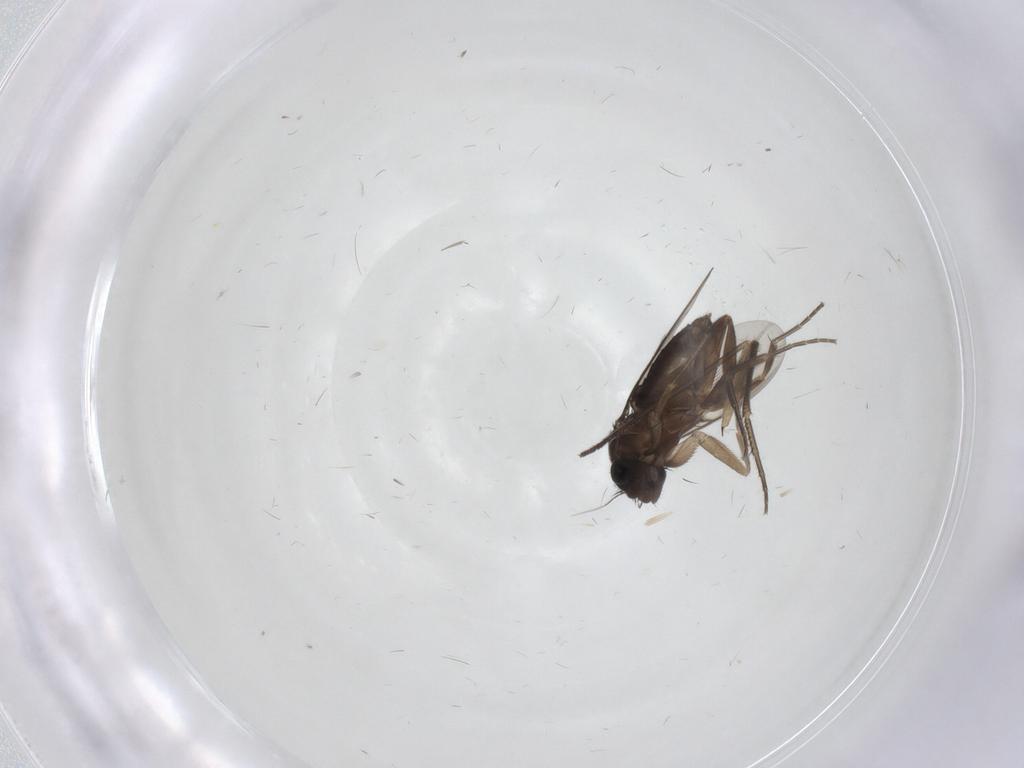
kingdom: Animalia
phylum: Arthropoda
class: Insecta
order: Diptera
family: Phoridae
